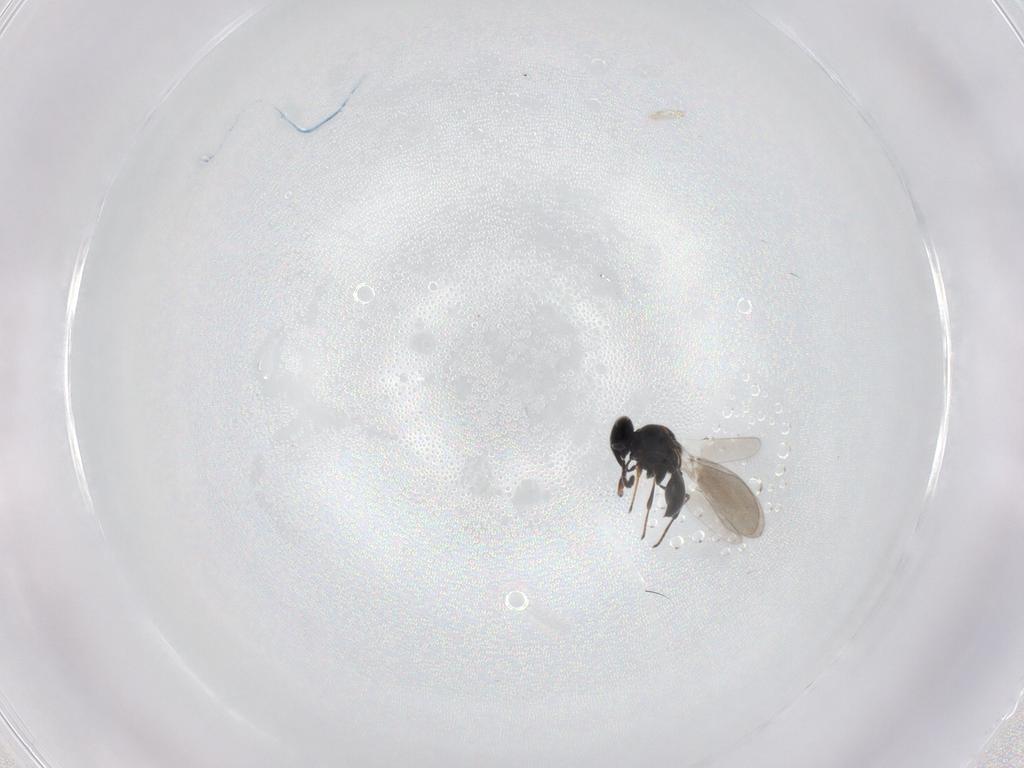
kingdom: Animalia
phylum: Arthropoda
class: Insecta
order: Hymenoptera
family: Platygastridae
